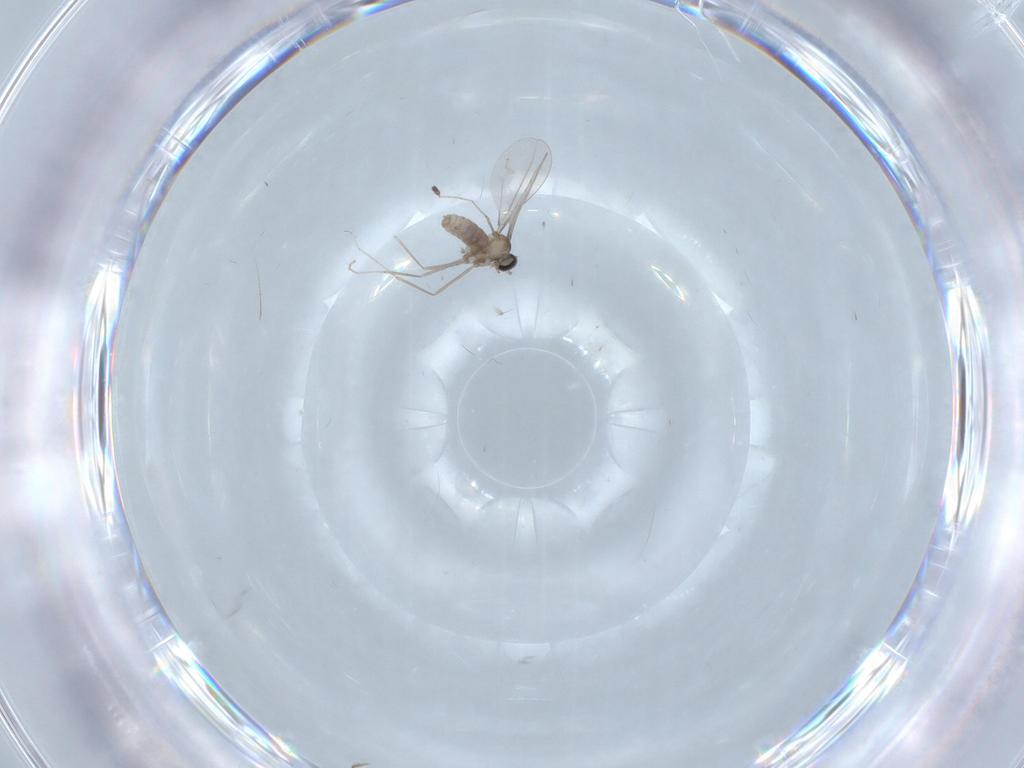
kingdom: Animalia
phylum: Arthropoda
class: Insecta
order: Diptera
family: Cecidomyiidae
